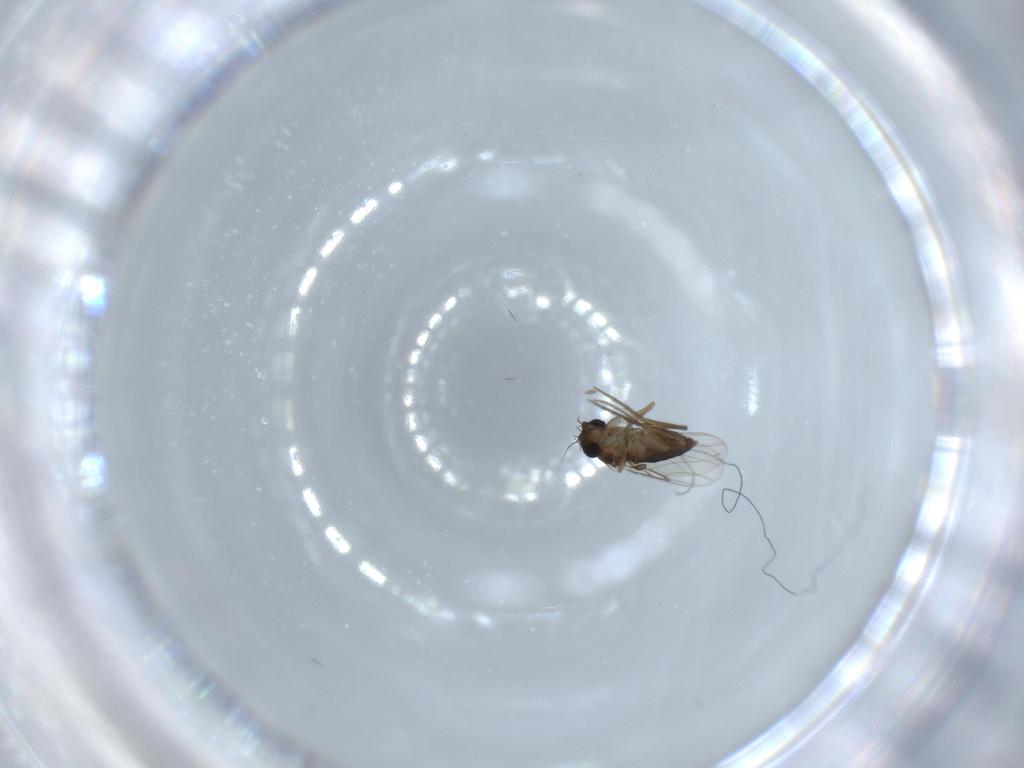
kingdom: Animalia
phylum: Arthropoda
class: Insecta
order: Diptera
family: Phoridae
